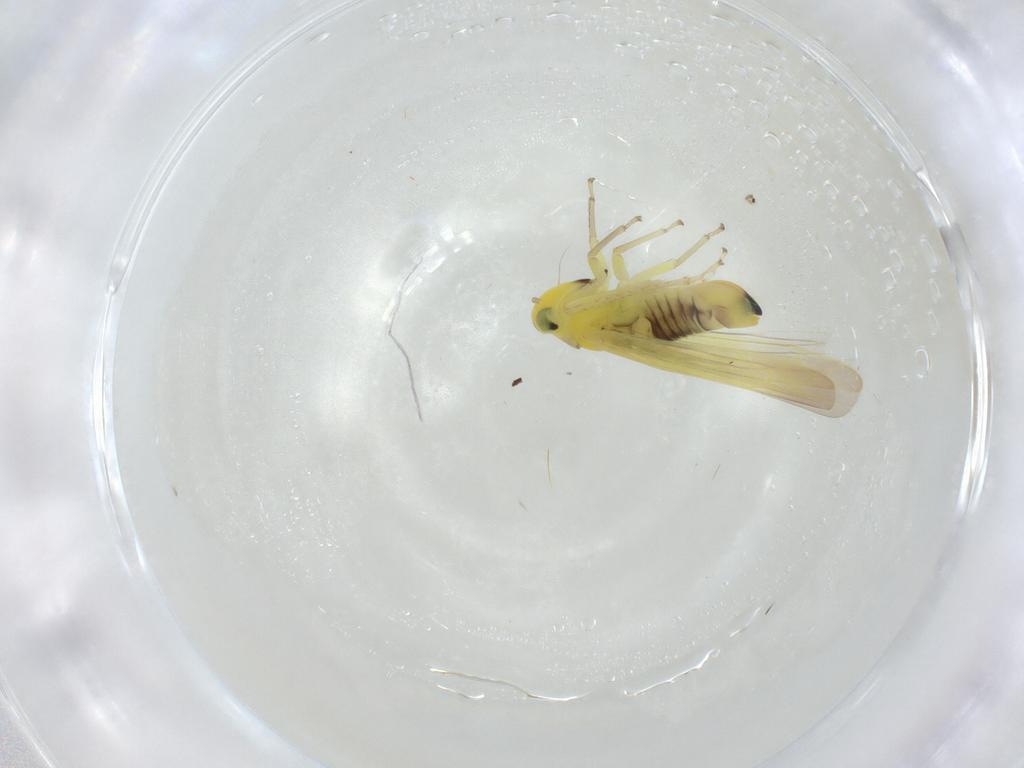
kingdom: Animalia
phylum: Arthropoda
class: Insecta
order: Hemiptera
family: Cicadellidae
